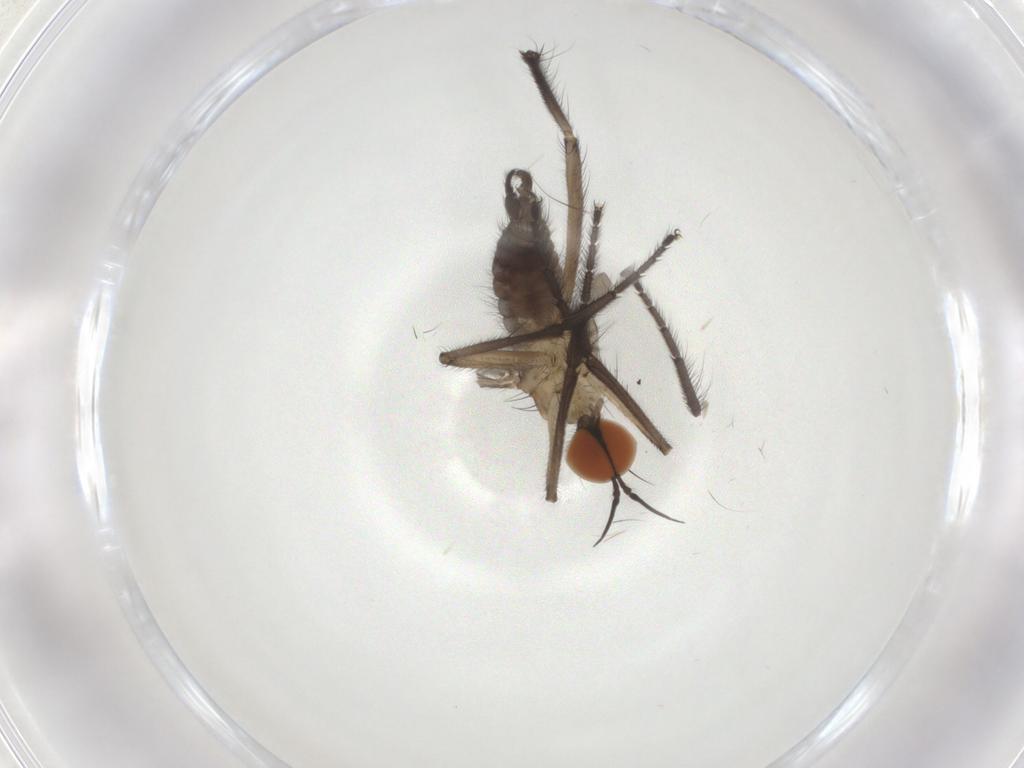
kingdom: Animalia
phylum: Arthropoda
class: Insecta
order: Diptera
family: Empididae
